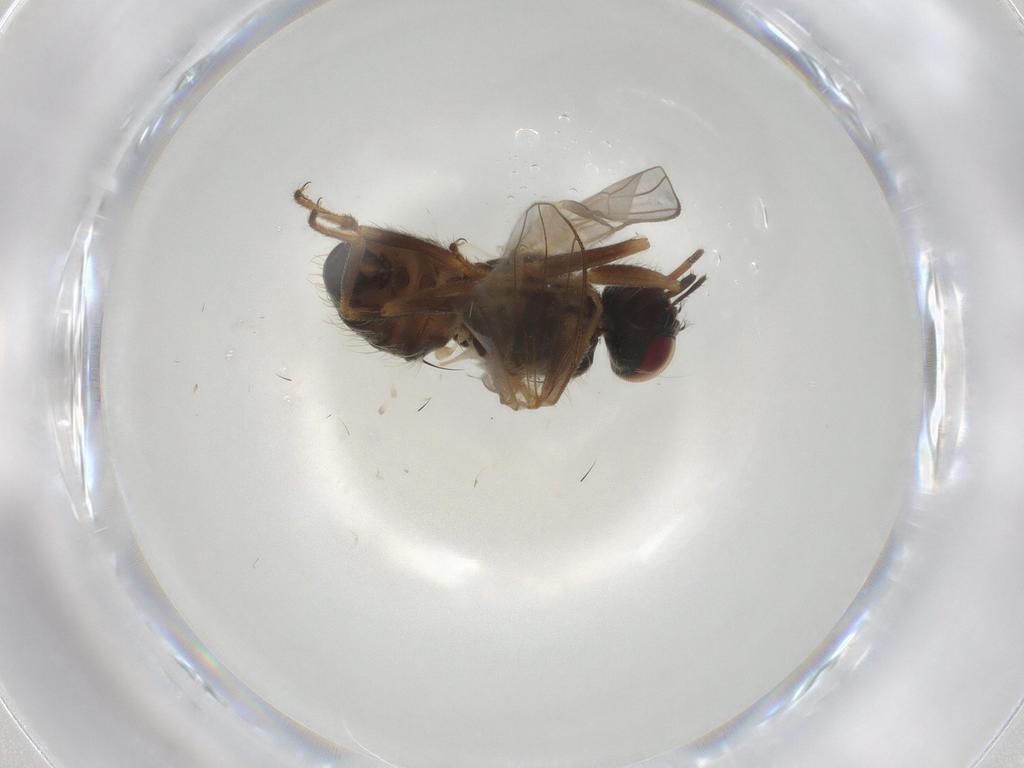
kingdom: Animalia
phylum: Arthropoda
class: Insecta
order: Diptera
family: Muscidae
